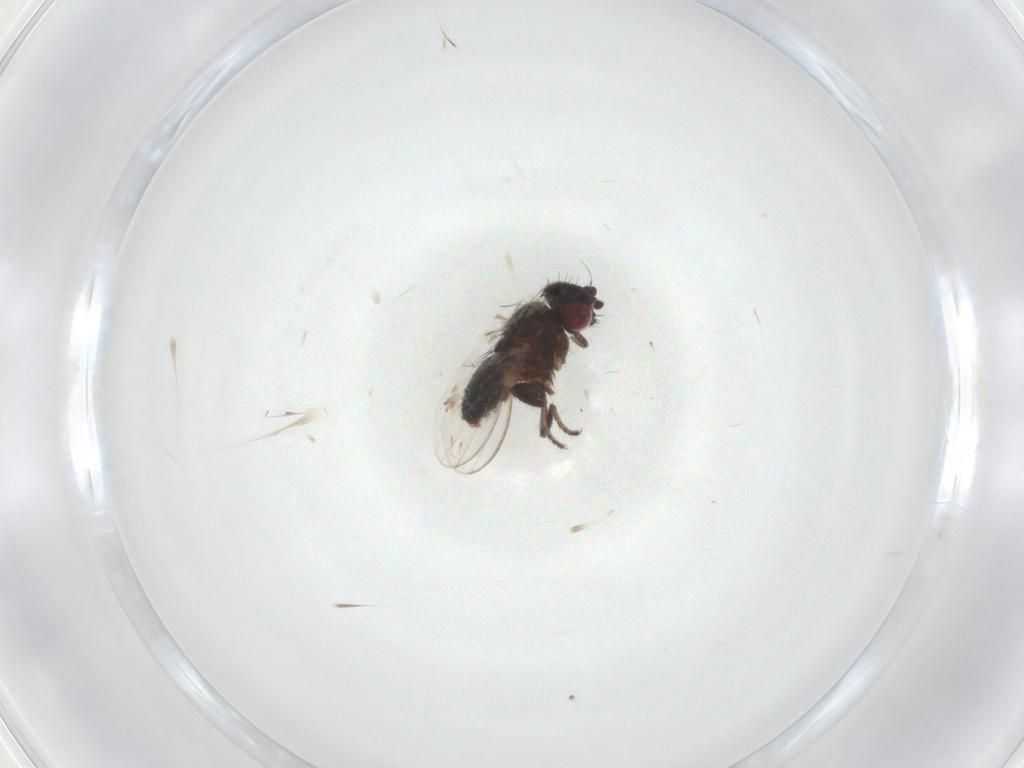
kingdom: Animalia
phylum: Arthropoda
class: Insecta
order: Diptera
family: Milichiidae
